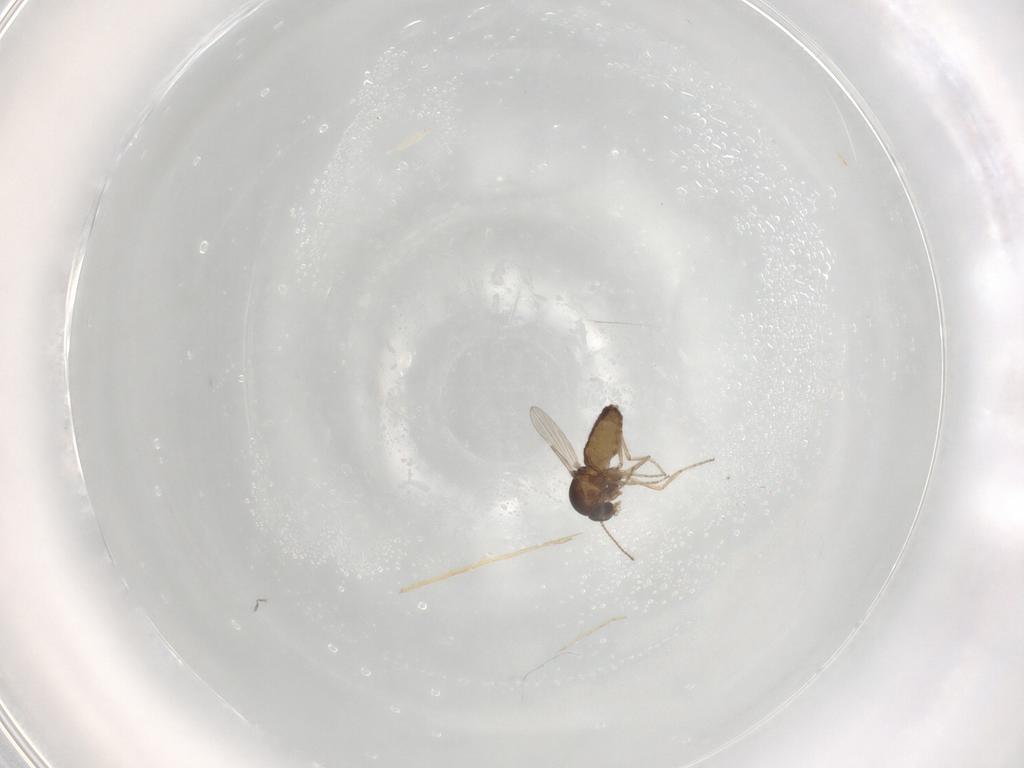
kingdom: Animalia
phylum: Arthropoda
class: Insecta
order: Diptera
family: Ceratopogonidae
